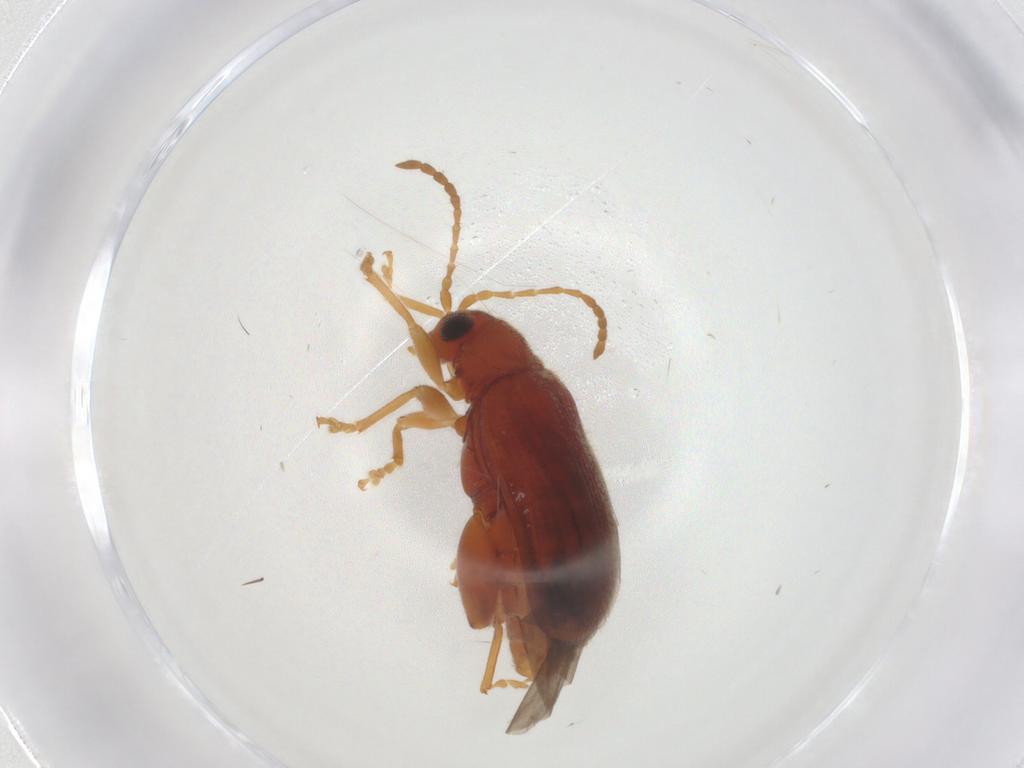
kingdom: Animalia
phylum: Arthropoda
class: Insecta
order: Coleoptera
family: Chrysomelidae
